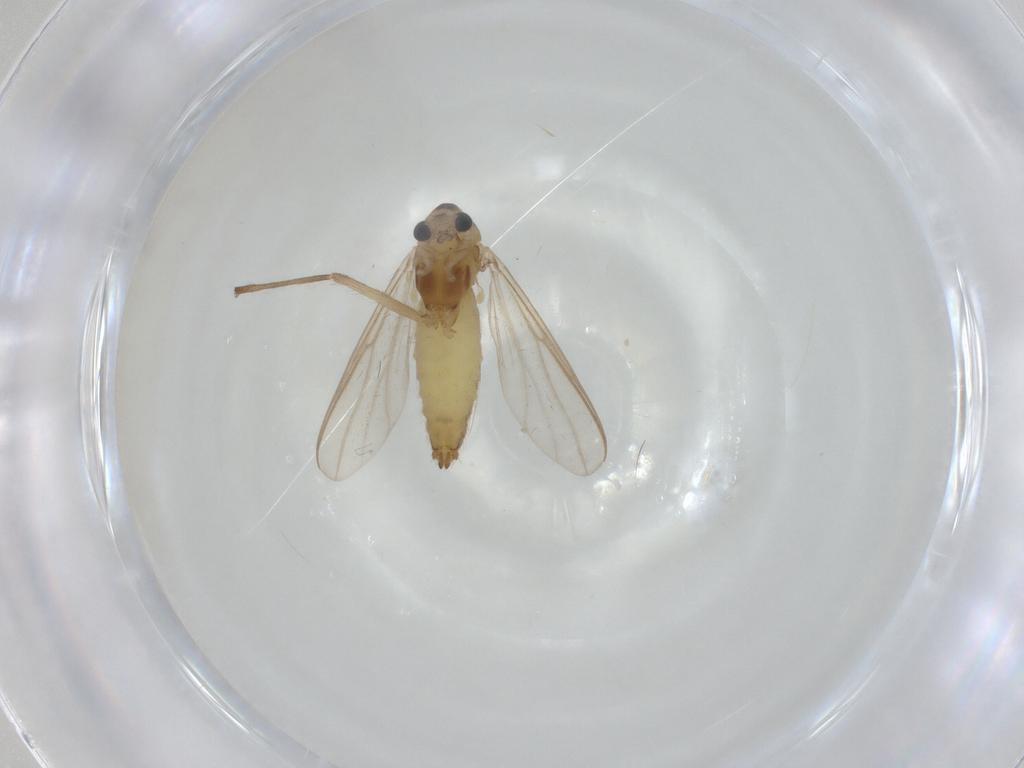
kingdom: Animalia
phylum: Arthropoda
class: Insecta
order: Diptera
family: Chironomidae
